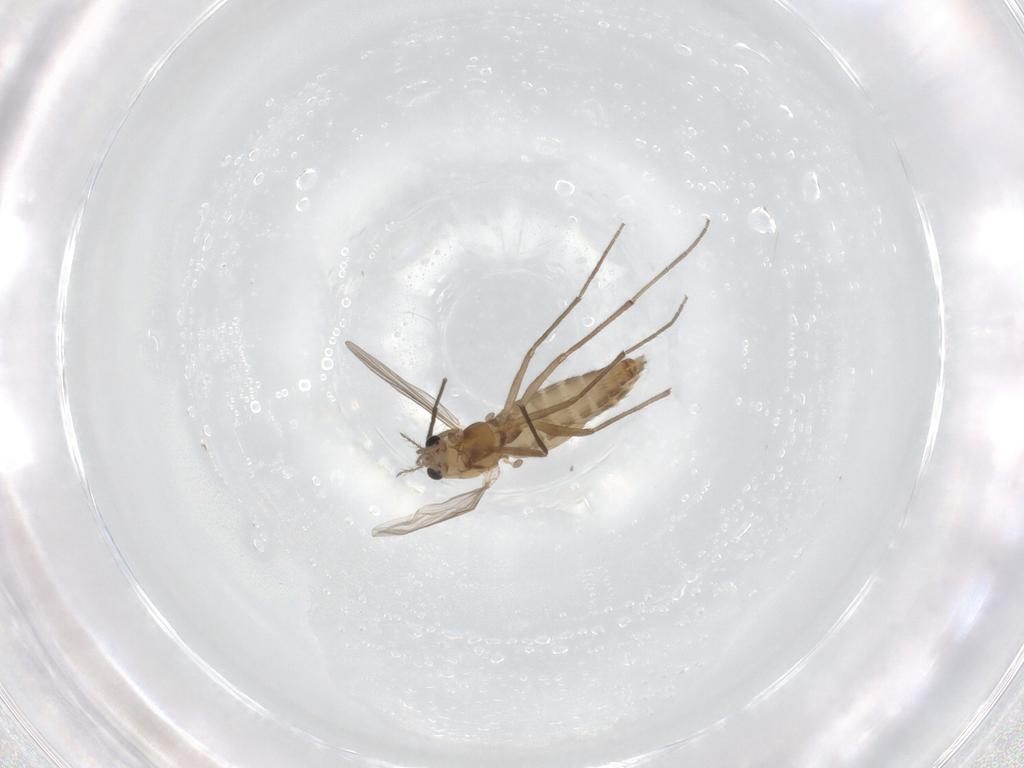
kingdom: Animalia
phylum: Arthropoda
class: Insecta
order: Diptera
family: Chironomidae
